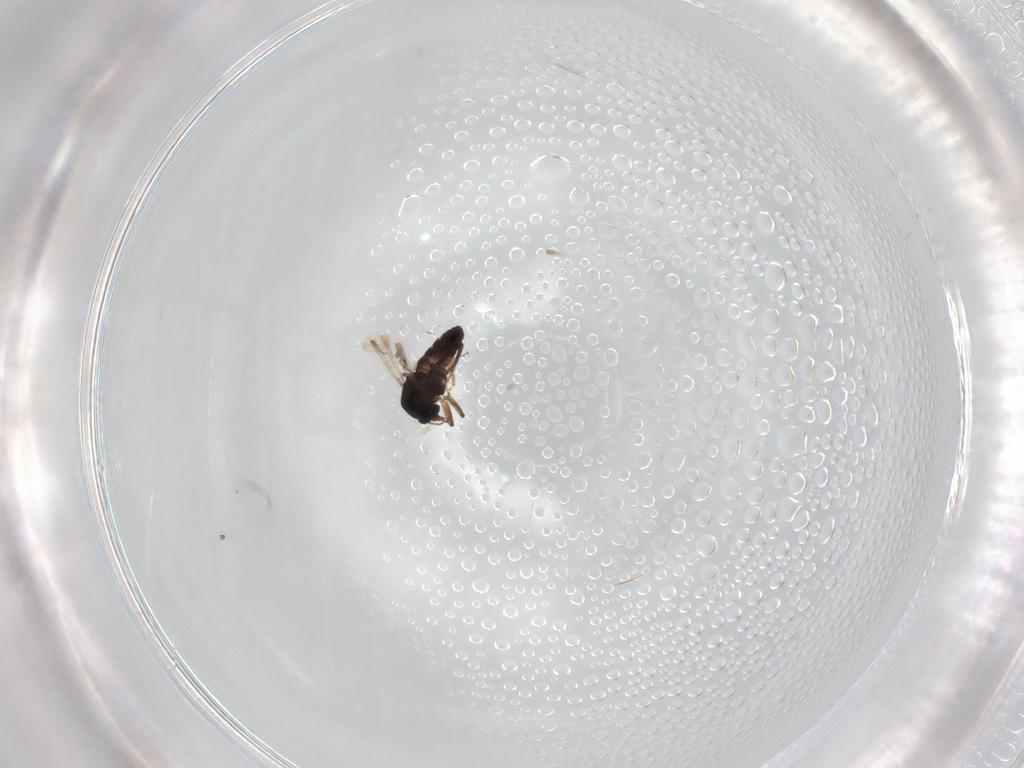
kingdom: Animalia
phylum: Arthropoda
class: Insecta
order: Diptera
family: Ceratopogonidae
